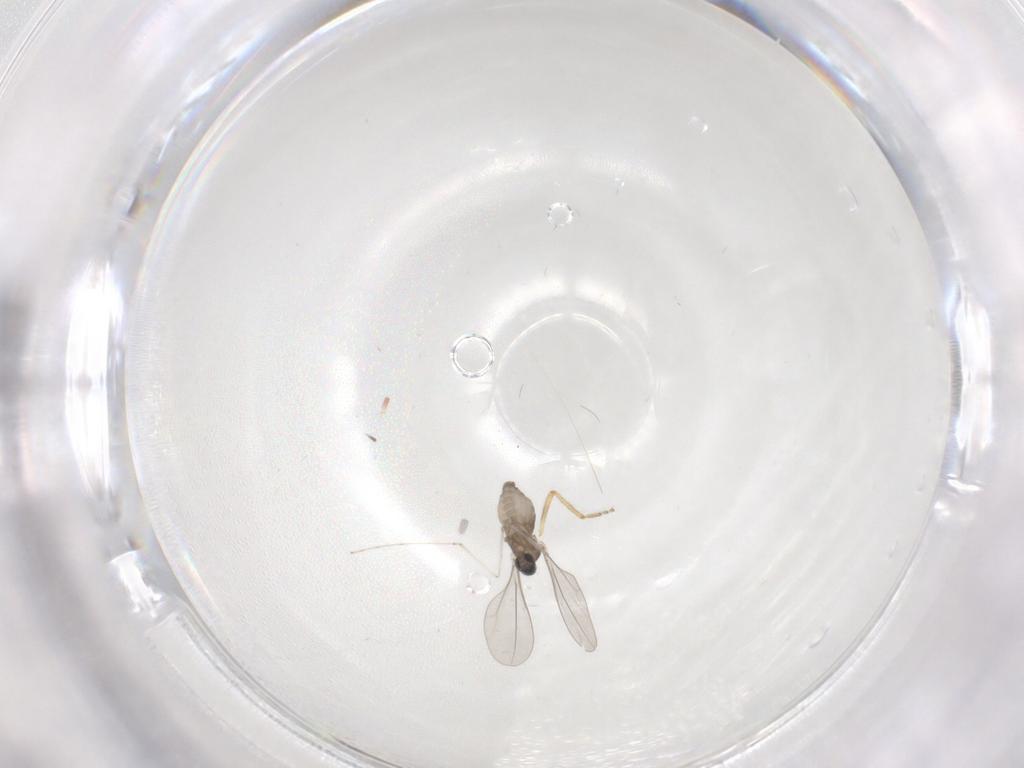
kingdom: Animalia
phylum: Arthropoda
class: Insecta
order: Diptera
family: Cecidomyiidae
